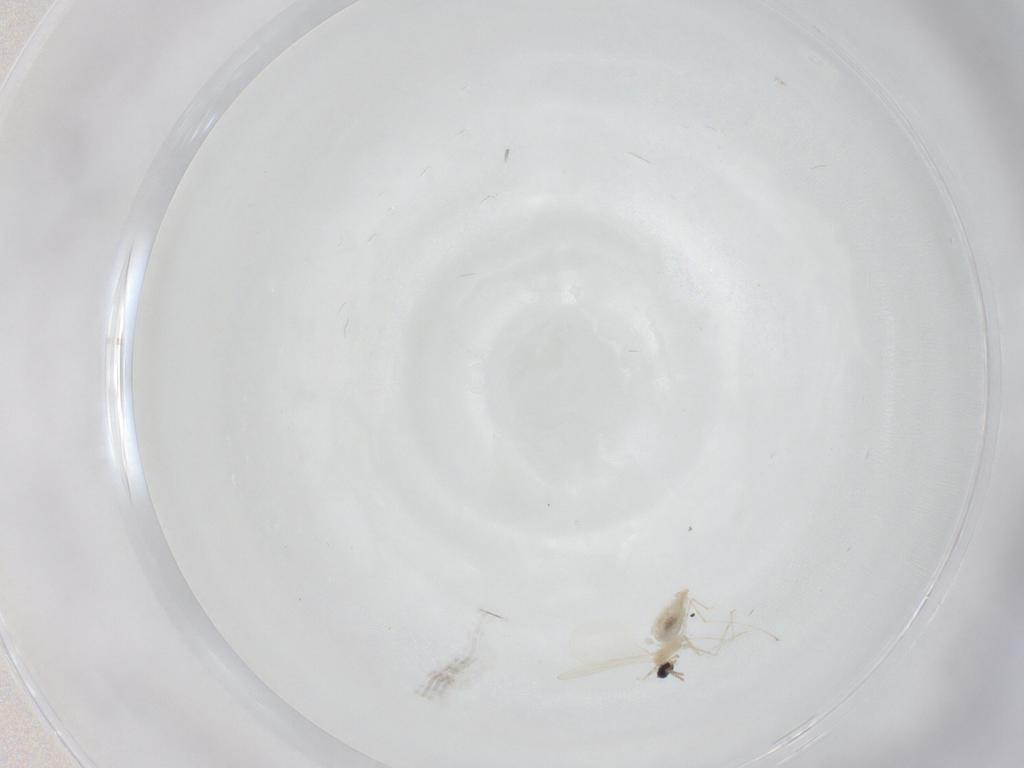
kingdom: Animalia
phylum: Arthropoda
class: Insecta
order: Diptera
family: Cecidomyiidae
